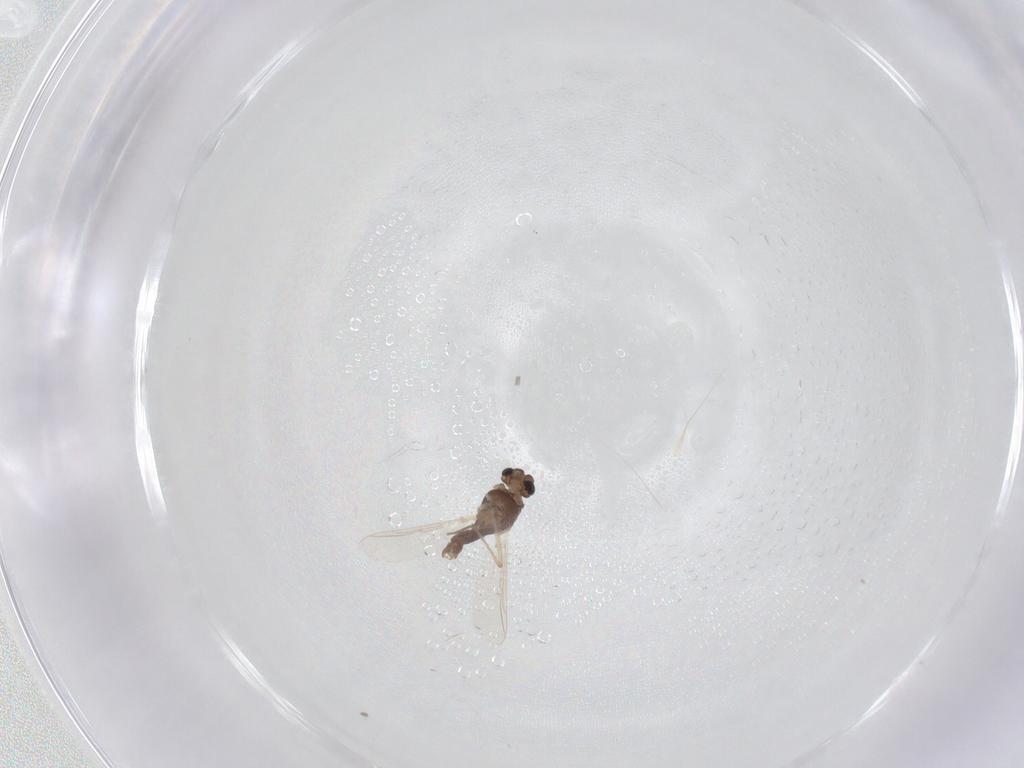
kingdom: Animalia
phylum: Arthropoda
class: Insecta
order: Diptera
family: Chironomidae
